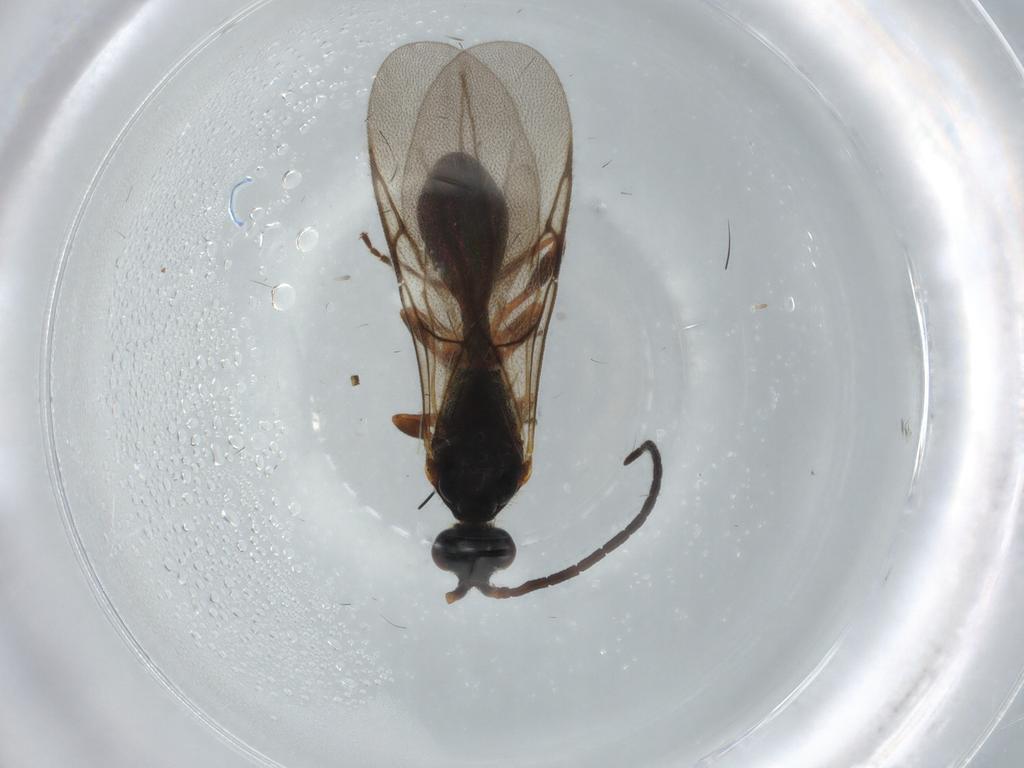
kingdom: Animalia
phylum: Arthropoda
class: Insecta
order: Hymenoptera
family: Diapriidae
